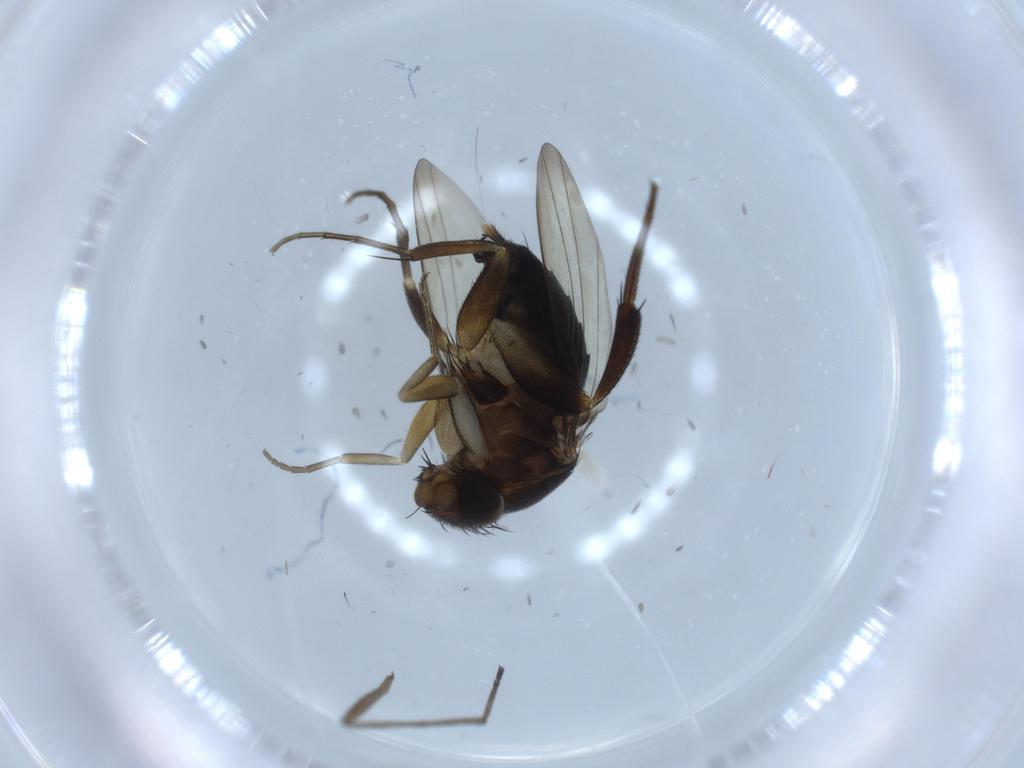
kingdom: Animalia
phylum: Arthropoda
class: Insecta
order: Diptera
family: Phoridae
